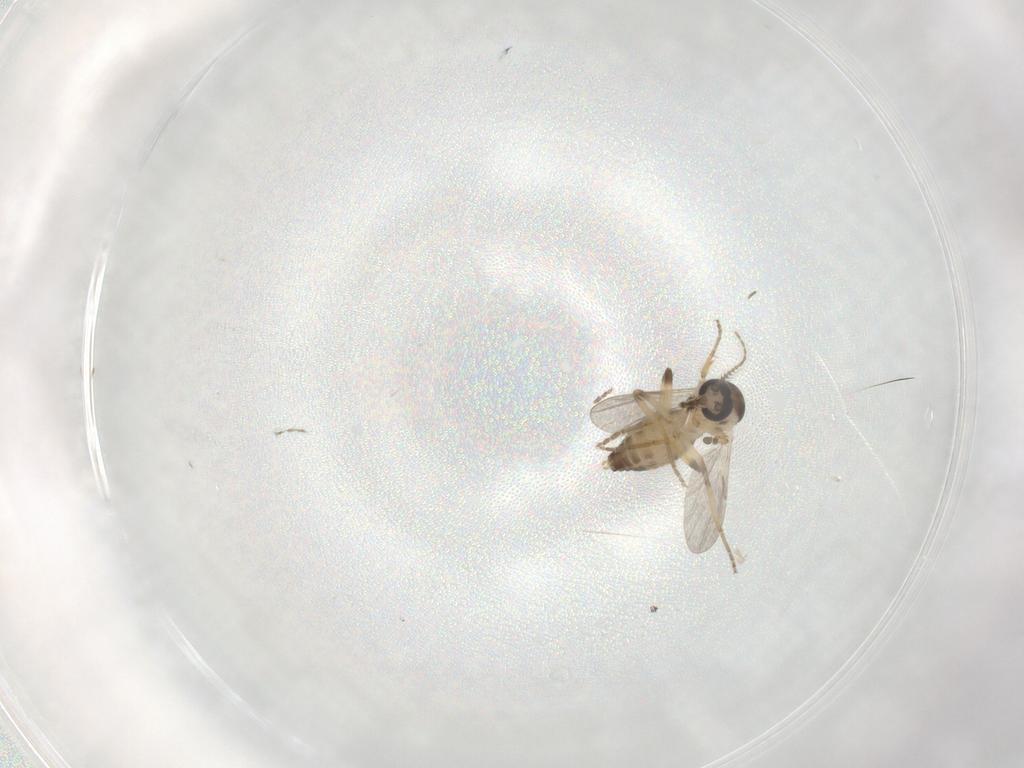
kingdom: Animalia
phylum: Arthropoda
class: Insecta
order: Diptera
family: Ceratopogonidae
